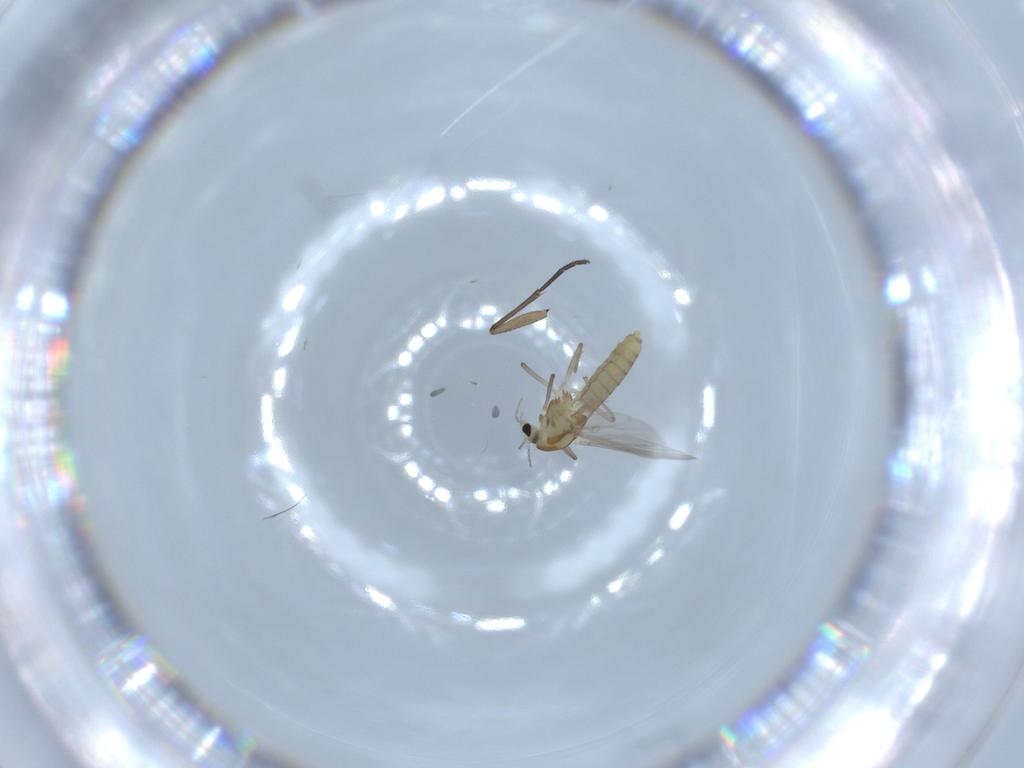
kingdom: Animalia
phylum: Arthropoda
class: Insecta
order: Diptera
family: Chironomidae
